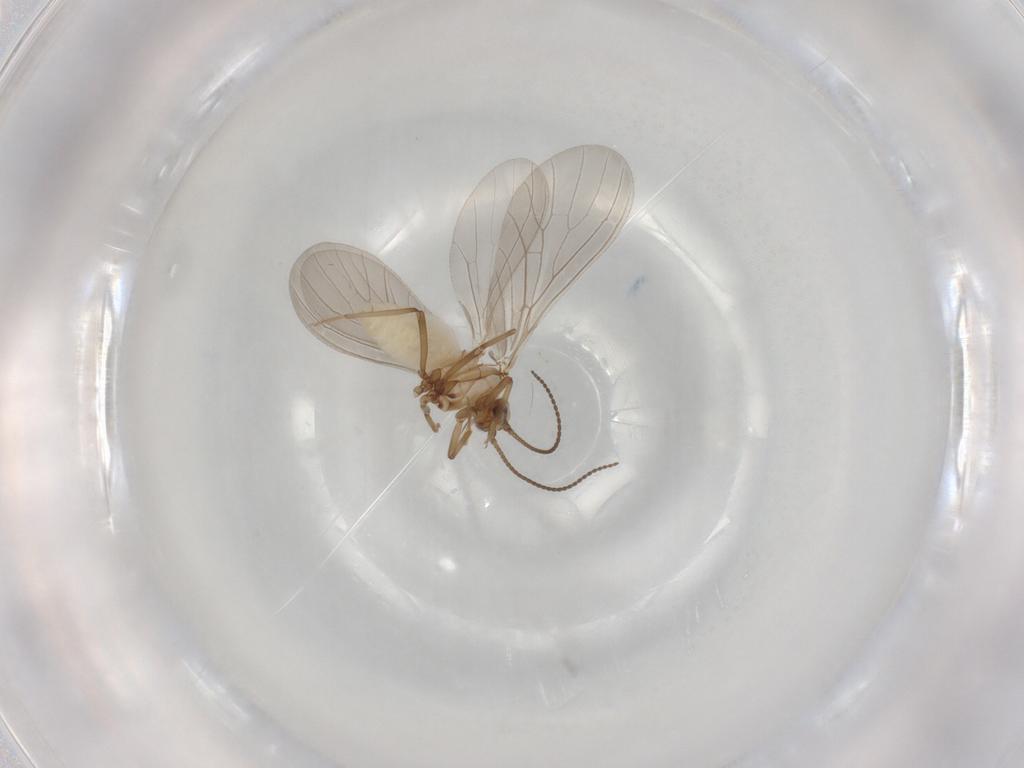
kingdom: Animalia
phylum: Arthropoda
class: Insecta
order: Neuroptera
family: Coniopterygidae
